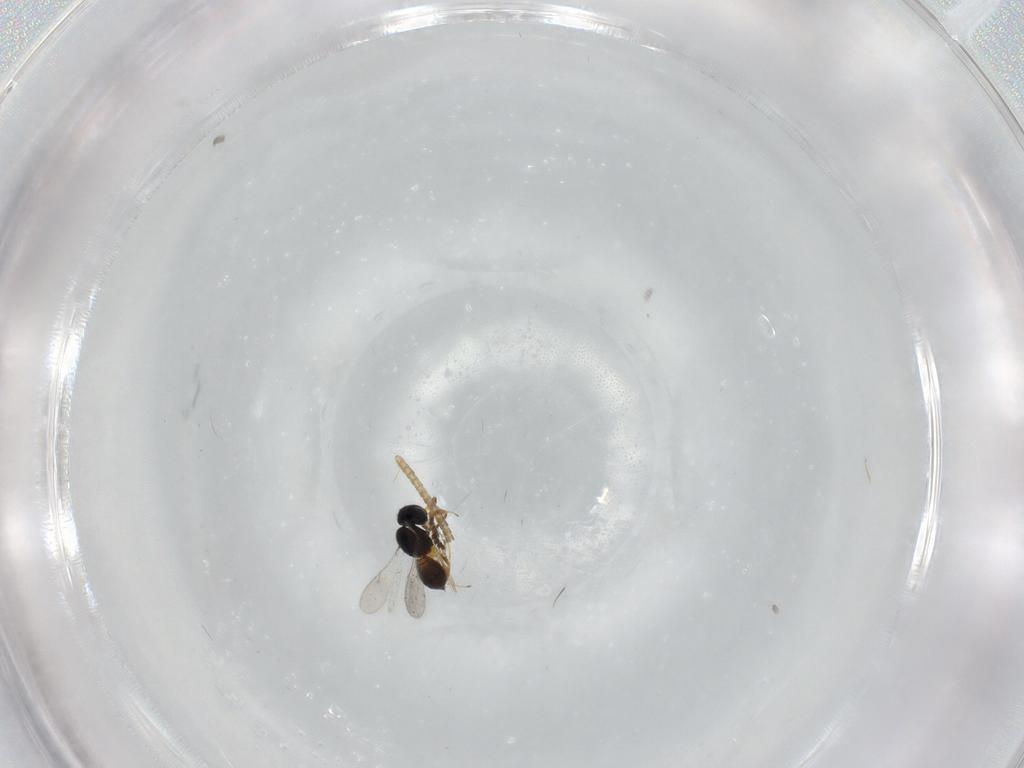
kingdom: Animalia
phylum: Arthropoda
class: Insecta
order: Hymenoptera
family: Scelionidae
